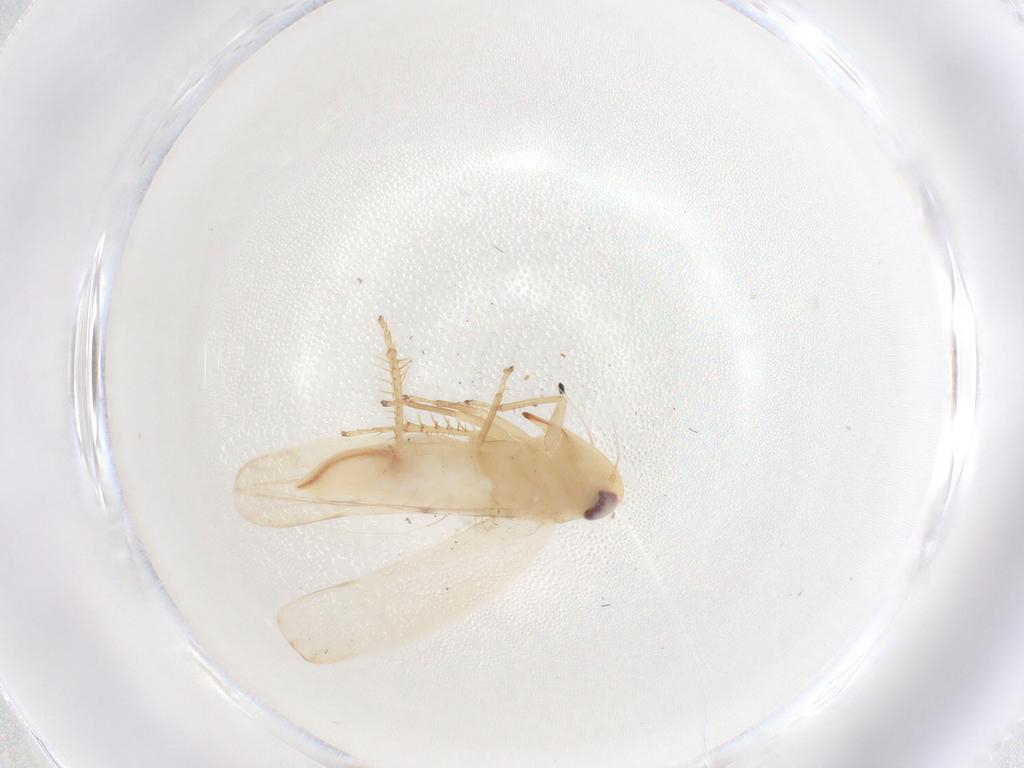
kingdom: Animalia
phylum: Arthropoda
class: Insecta
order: Hemiptera
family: Cicadellidae
